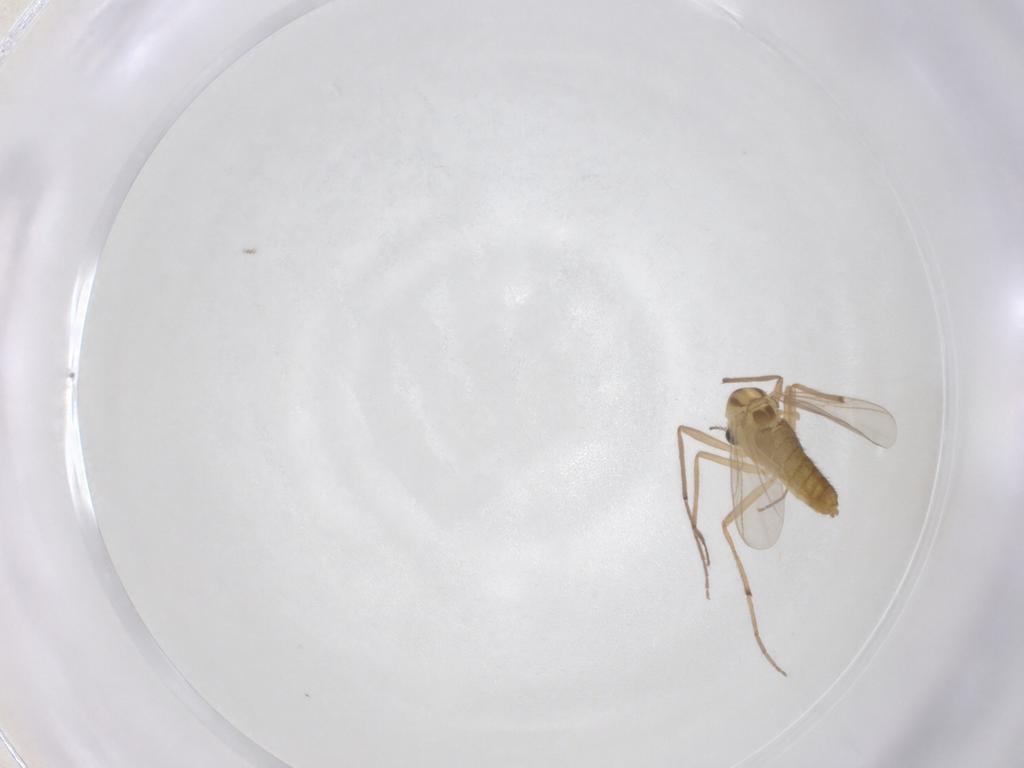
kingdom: Animalia
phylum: Arthropoda
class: Insecta
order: Diptera
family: Chironomidae
